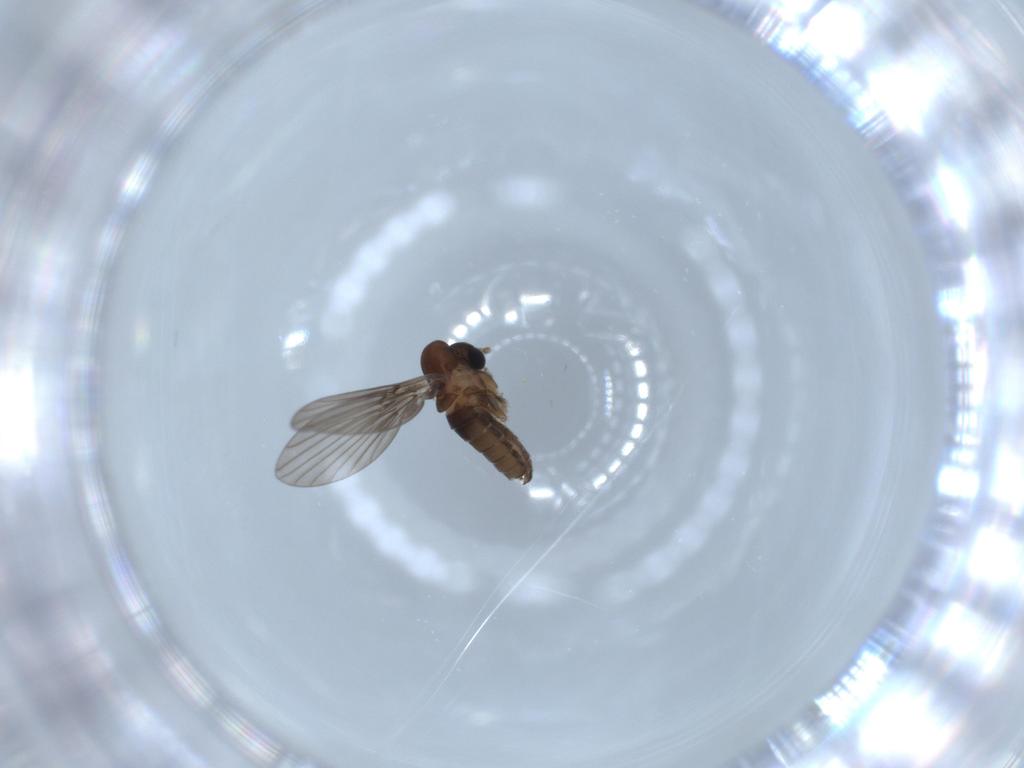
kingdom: Animalia
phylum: Arthropoda
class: Insecta
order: Diptera
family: Psychodidae
